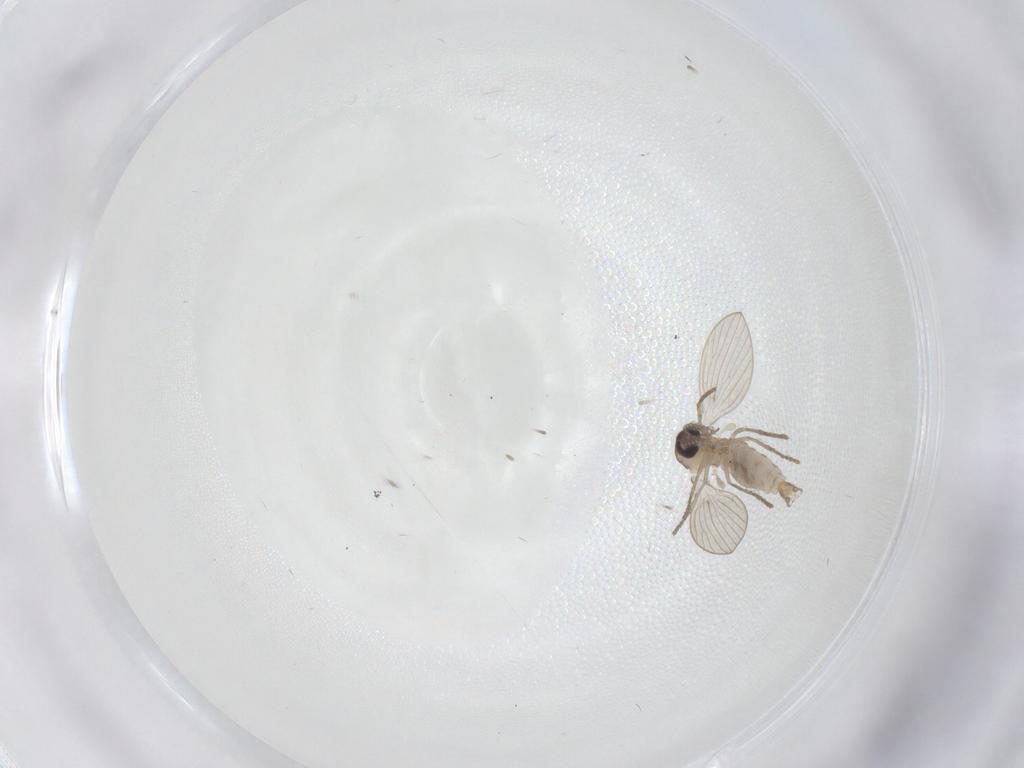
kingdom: Animalia
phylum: Arthropoda
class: Insecta
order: Diptera
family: Psychodidae
